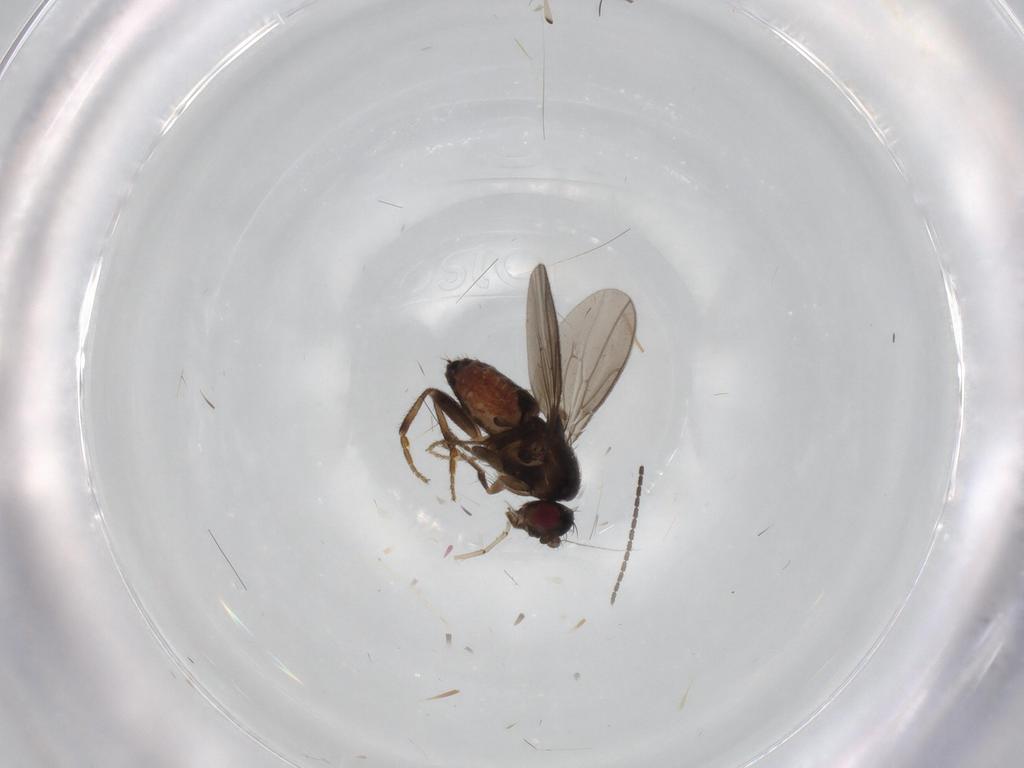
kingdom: Animalia
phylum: Arthropoda
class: Insecta
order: Diptera
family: Sphaeroceridae
